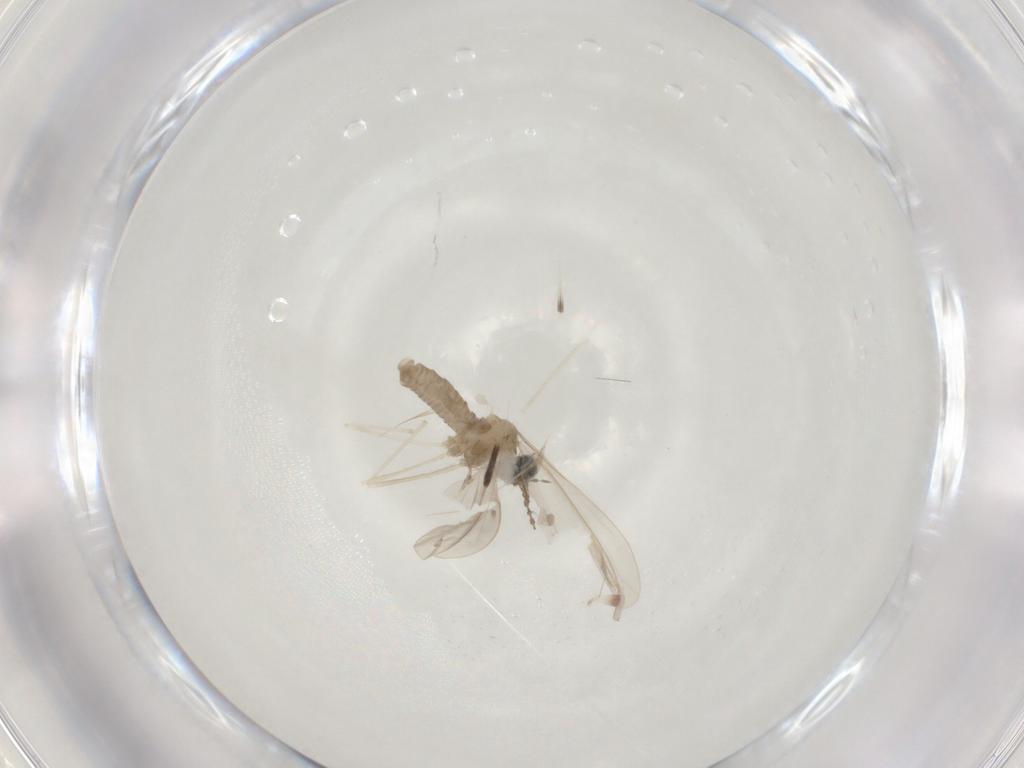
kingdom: Animalia
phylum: Arthropoda
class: Insecta
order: Diptera
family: Cecidomyiidae
